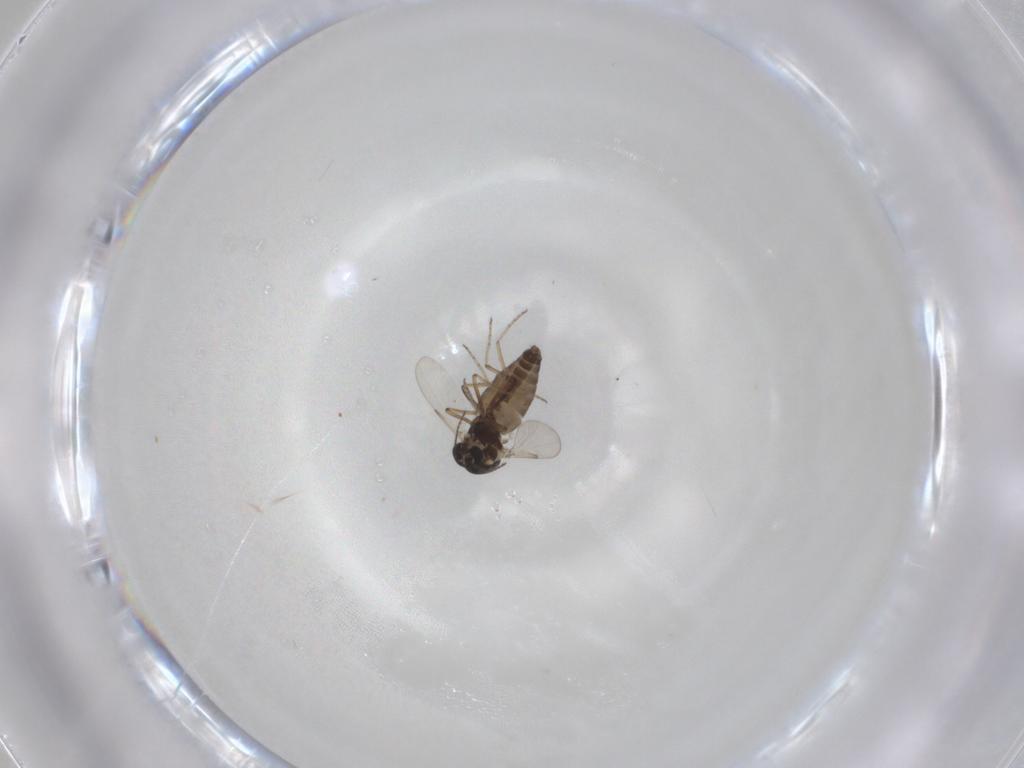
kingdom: Animalia
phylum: Arthropoda
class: Insecta
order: Diptera
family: Ceratopogonidae
